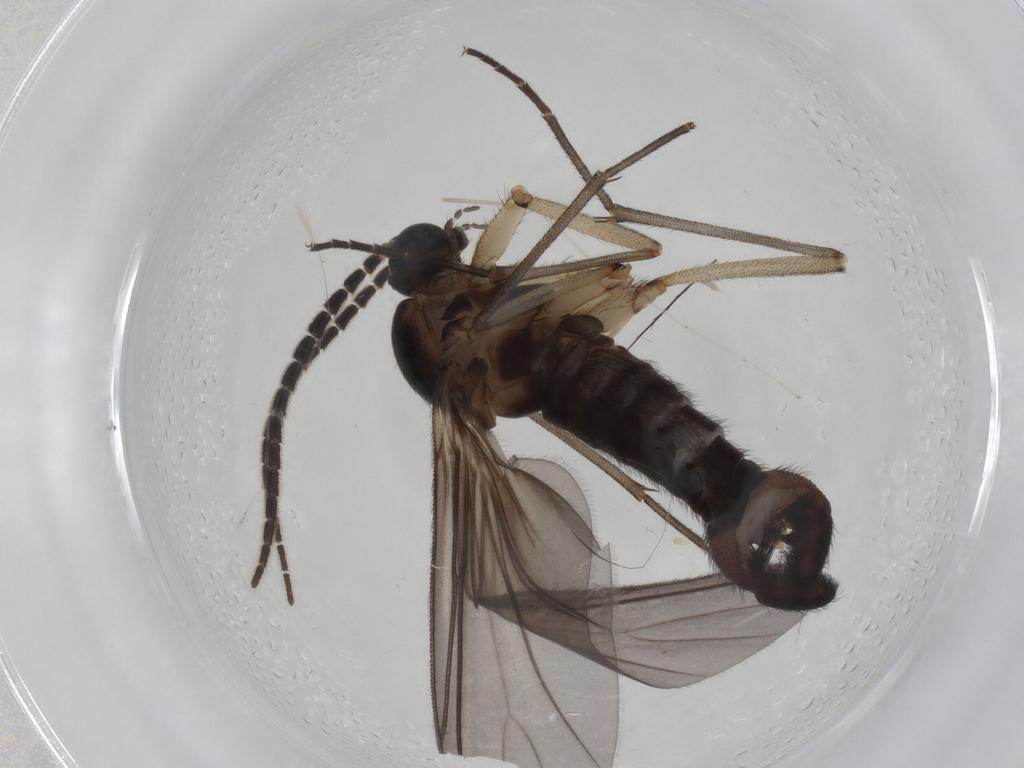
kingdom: Animalia
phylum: Arthropoda
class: Insecta
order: Diptera
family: Sciaridae
